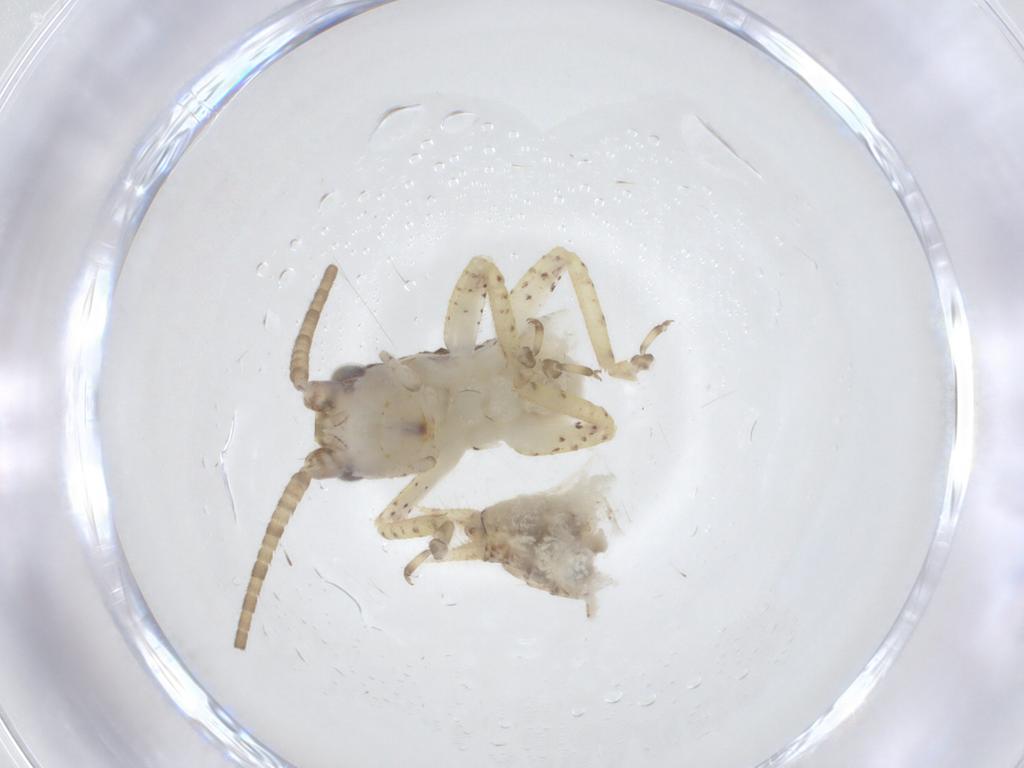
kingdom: Animalia
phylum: Arthropoda
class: Insecta
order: Orthoptera
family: Gryllidae
